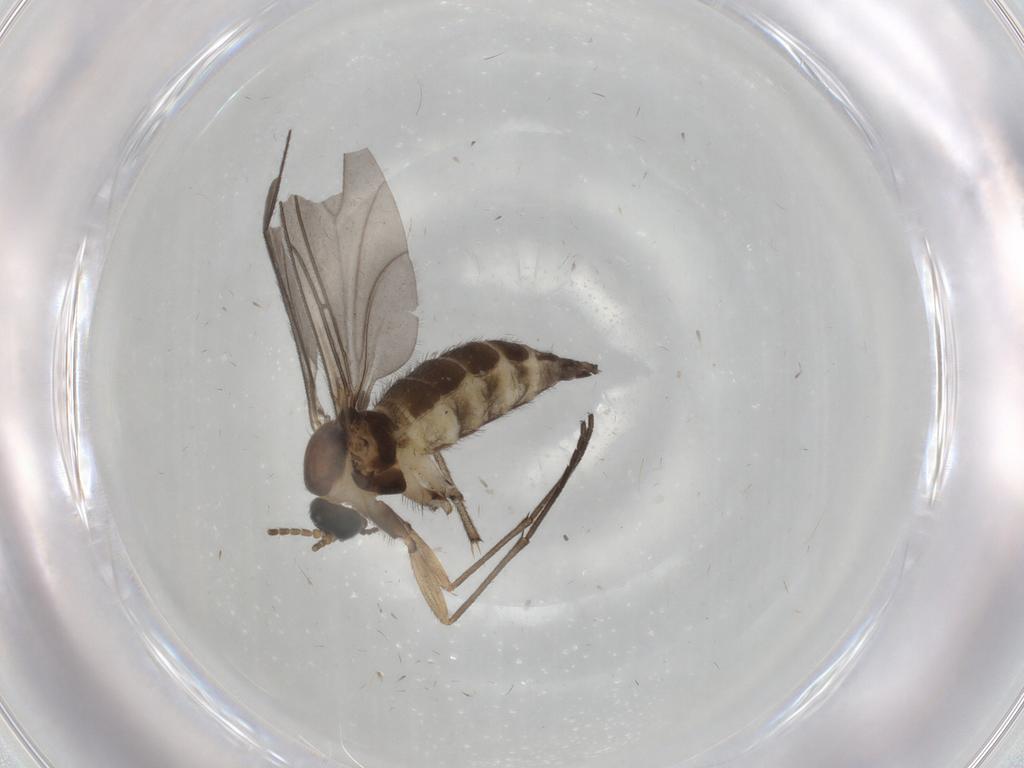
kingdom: Animalia
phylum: Arthropoda
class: Insecta
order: Diptera
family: Sciaridae
